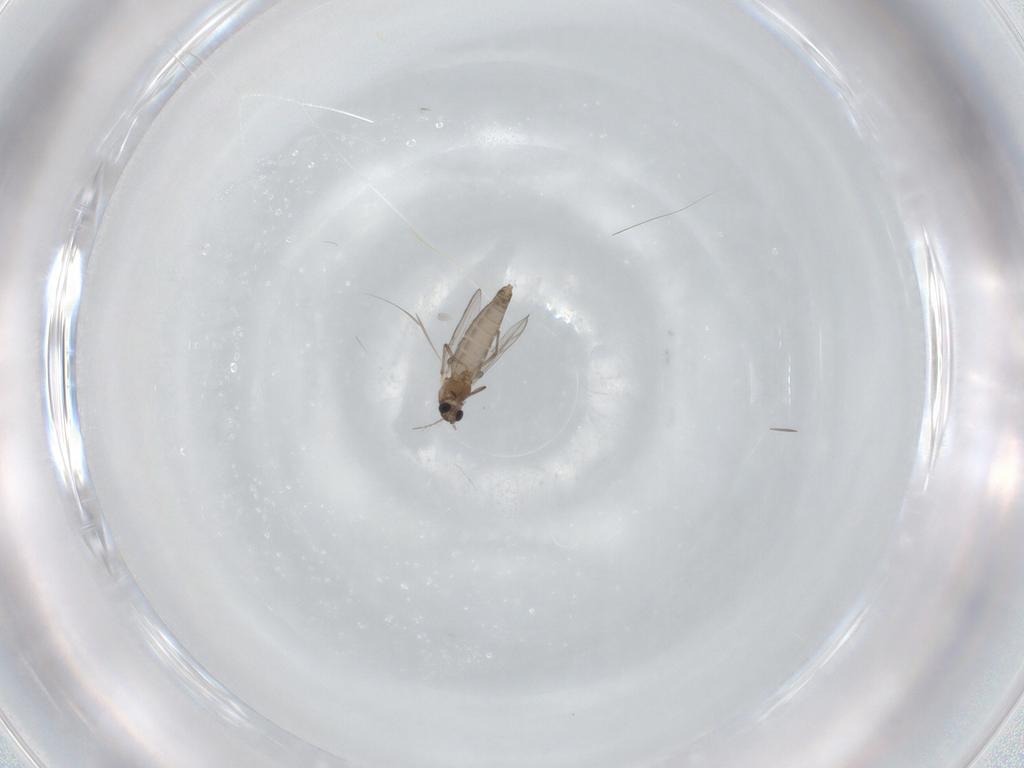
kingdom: Animalia
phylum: Arthropoda
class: Insecta
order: Diptera
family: Chironomidae
